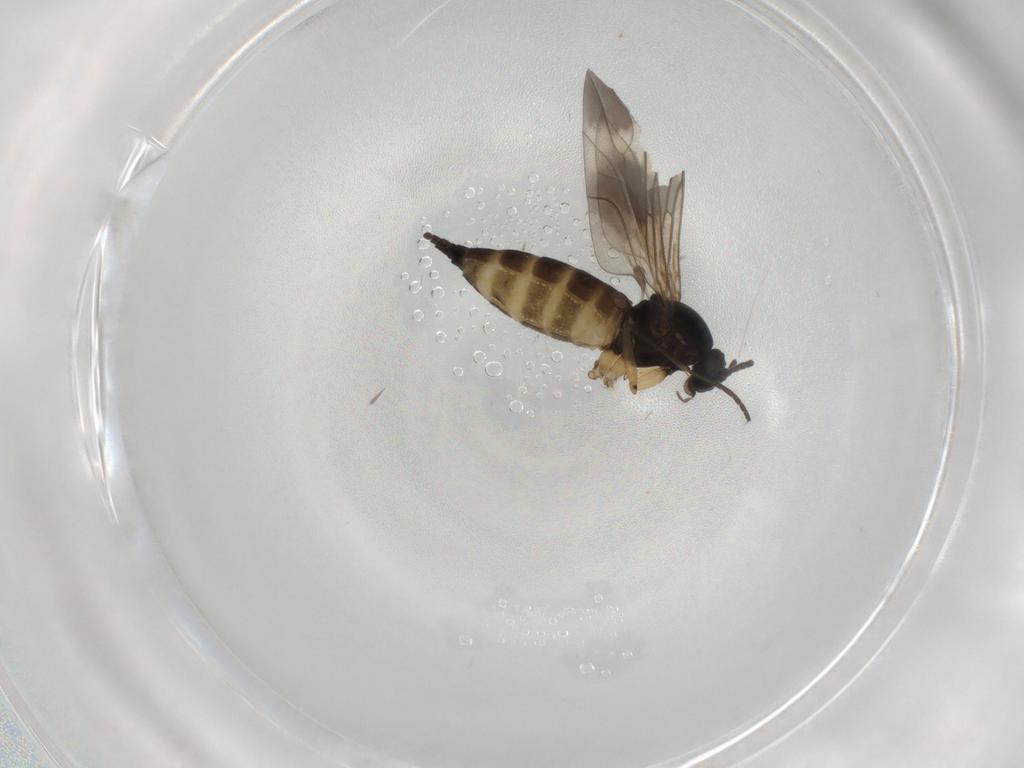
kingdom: Animalia
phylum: Arthropoda
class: Insecta
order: Diptera
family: Sciaridae
